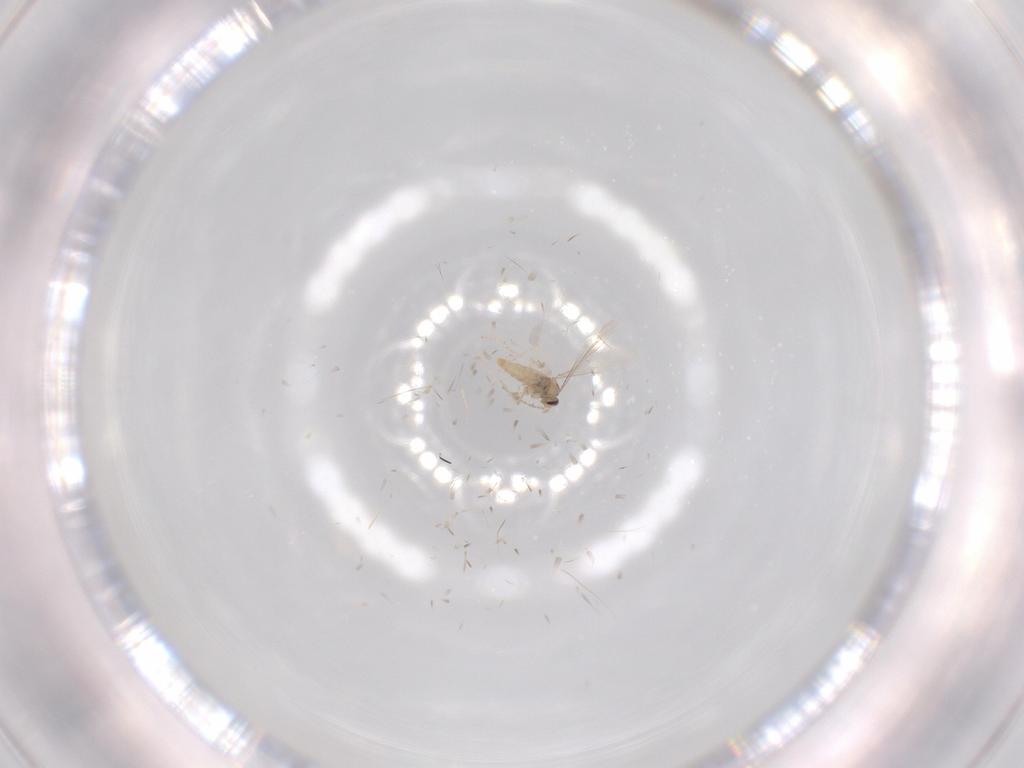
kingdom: Animalia
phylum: Arthropoda
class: Insecta
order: Diptera
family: Cecidomyiidae
